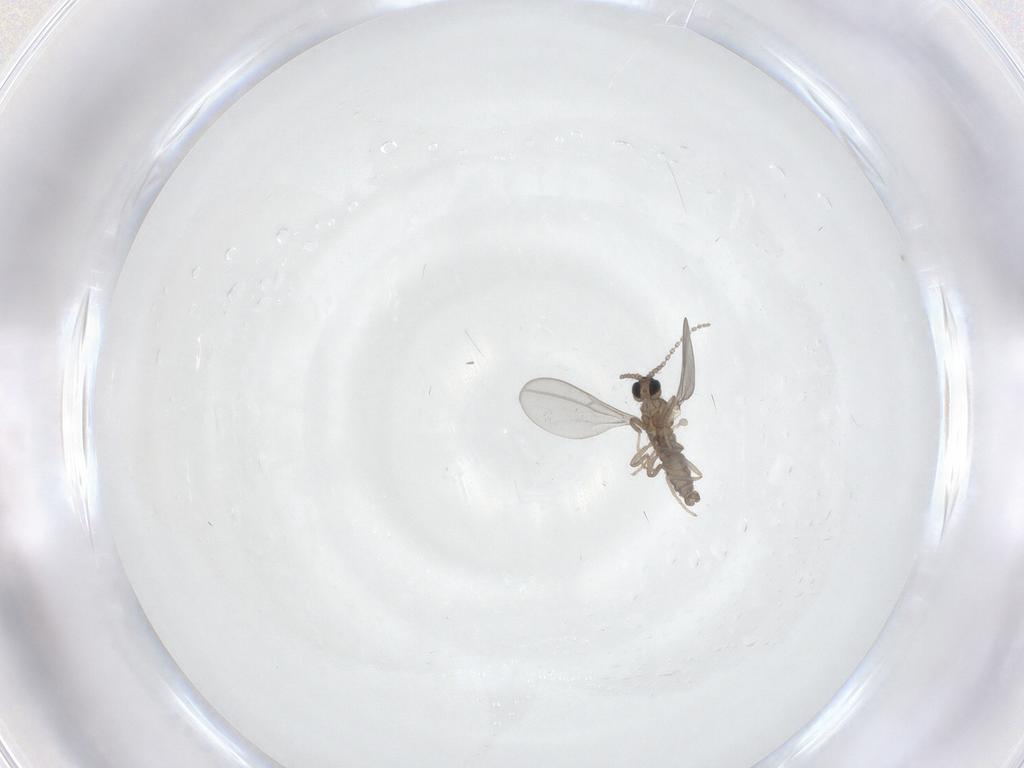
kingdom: Animalia
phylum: Arthropoda
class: Insecta
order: Diptera
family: Cecidomyiidae
